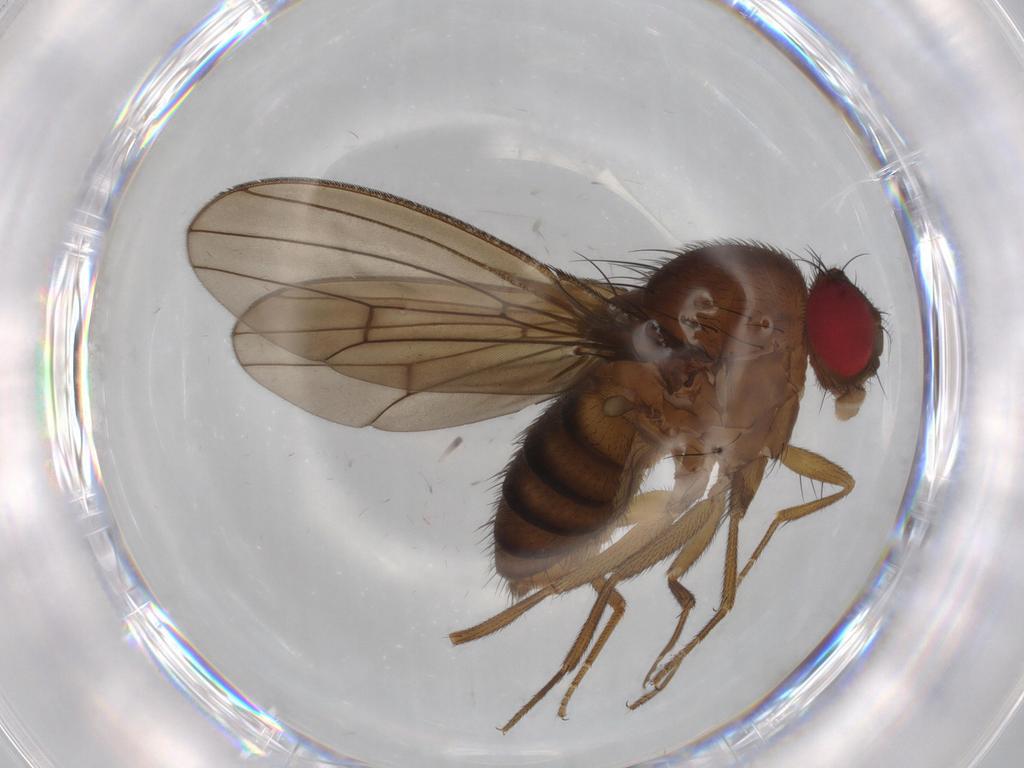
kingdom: Animalia
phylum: Arthropoda
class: Insecta
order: Diptera
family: Drosophilidae
